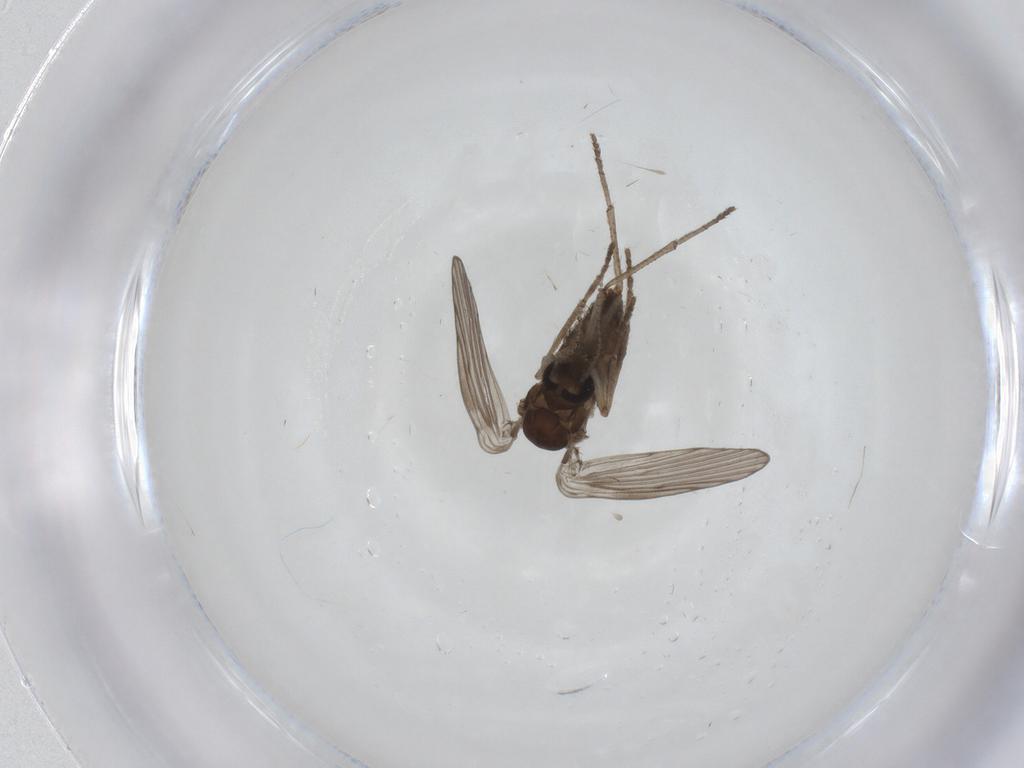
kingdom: Animalia
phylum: Arthropoda
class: Insecta
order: Diptera
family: Psychodidae
